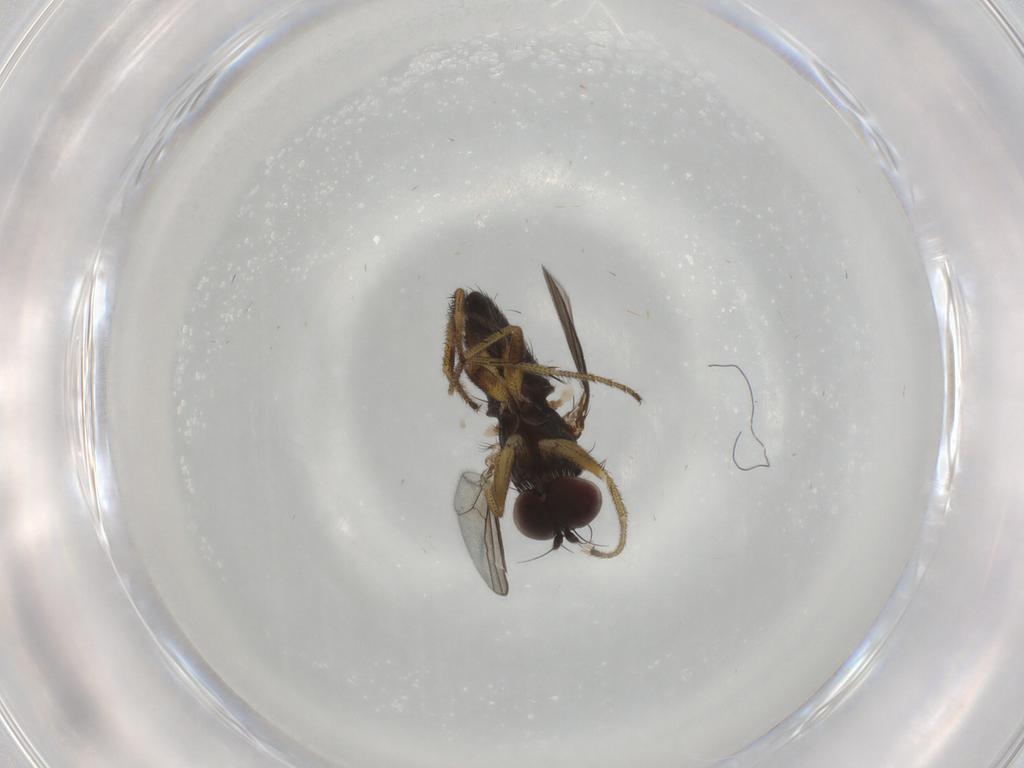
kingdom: Animalia
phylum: Arthropoda
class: Insecta
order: Diptera
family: Dolichopodidae
